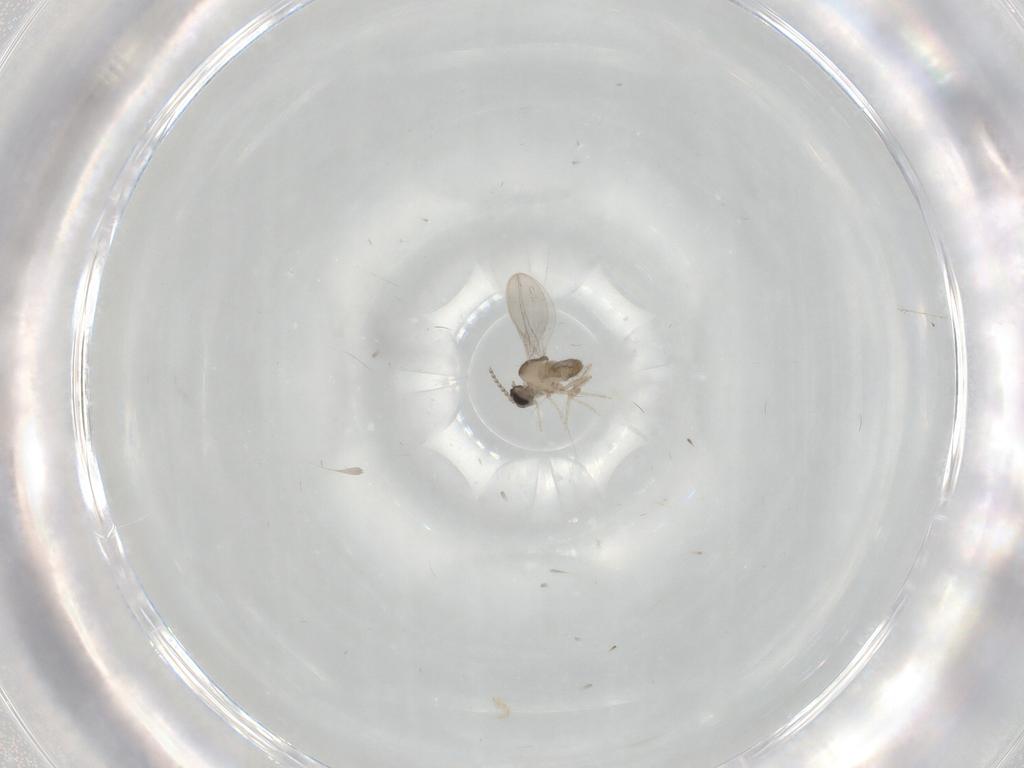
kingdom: Animalia
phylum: Arthropoda
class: Insecta
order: Diptera
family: Cecidomyiidae
